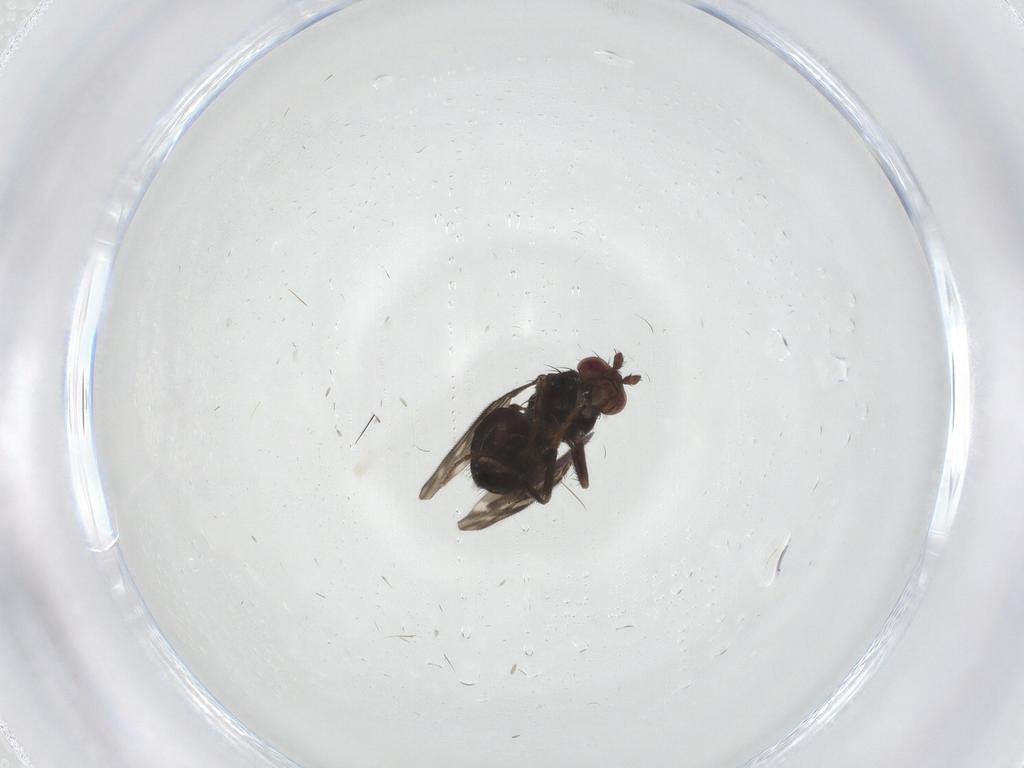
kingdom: Animalia
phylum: Arthropoda
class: Insecta
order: Diptera
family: Sphaeroceridae
